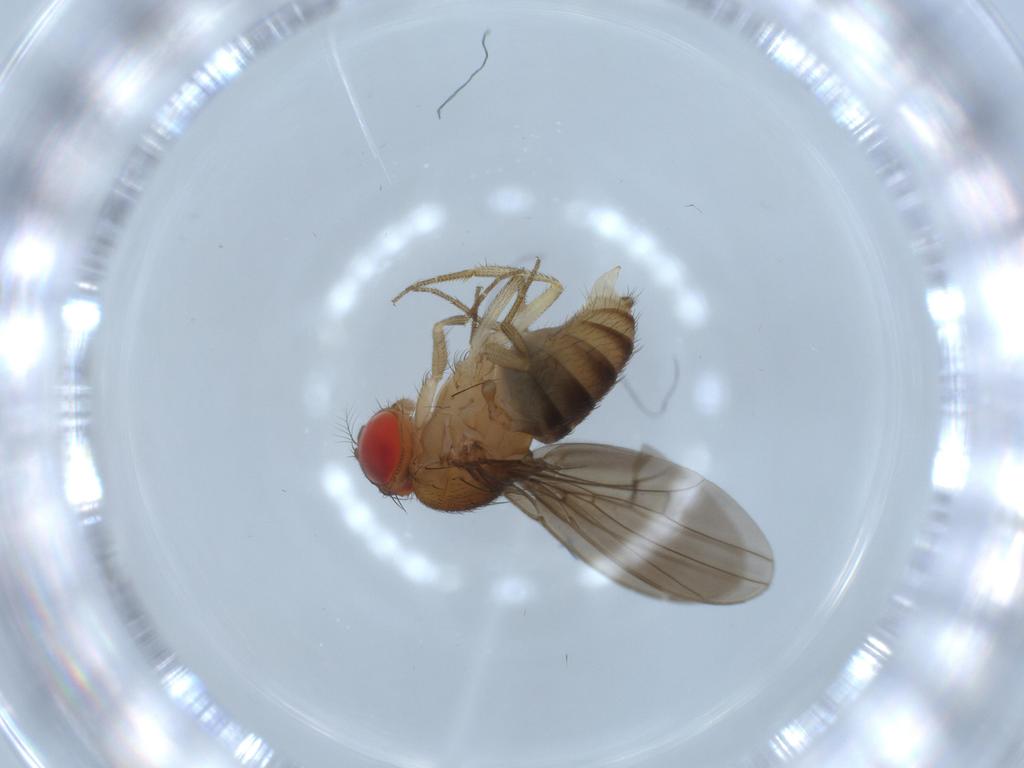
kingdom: Animalia
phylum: Arthropoda
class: Insecta
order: Diptera
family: Cecidomyiidae
